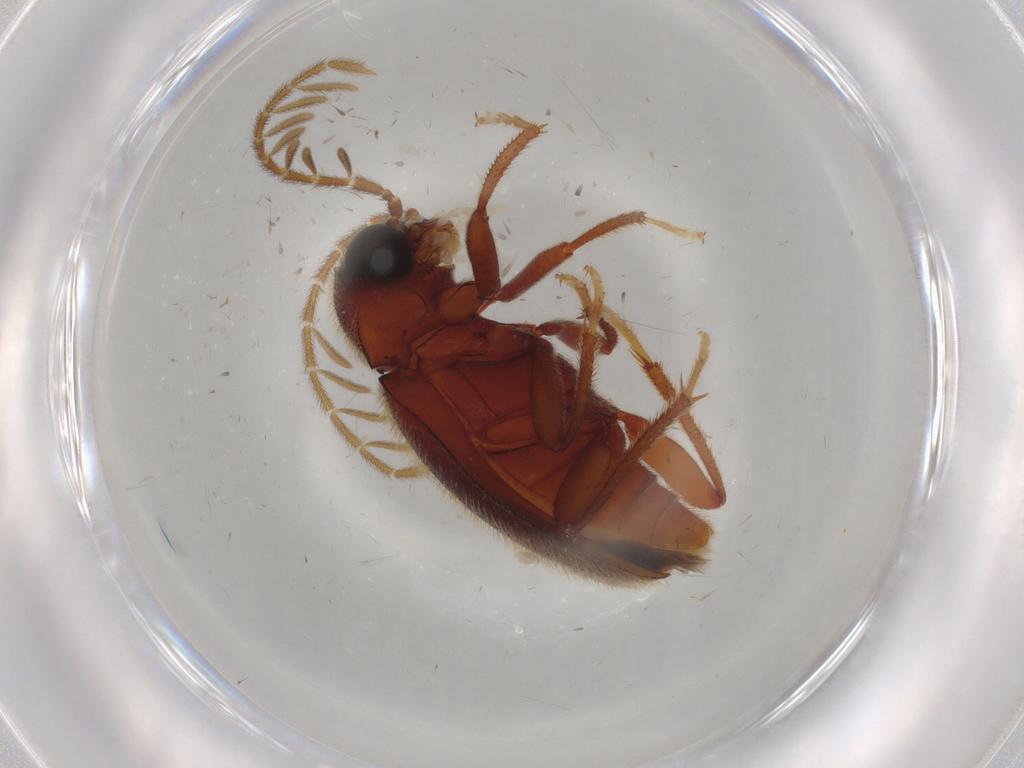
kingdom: Animalia
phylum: Arthropoda
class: Insecta
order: Coleoptera
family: Ptilodactylidae
